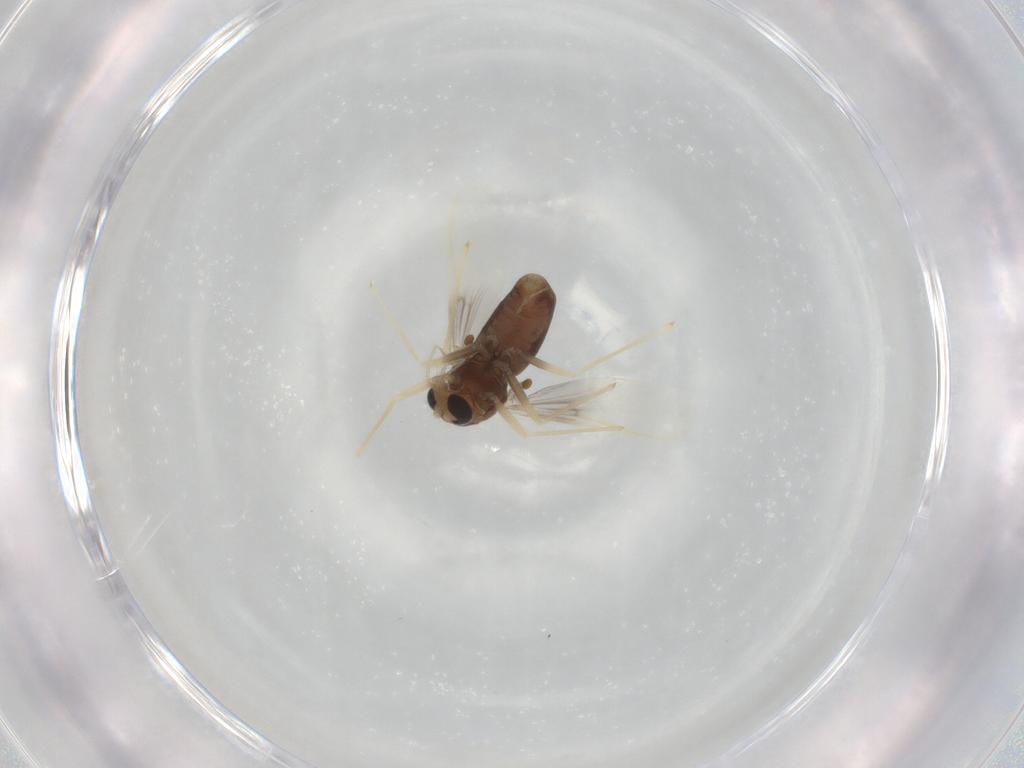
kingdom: Animalia
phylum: Arthropoda
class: Insecta
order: Diptera
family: Chironomidae
